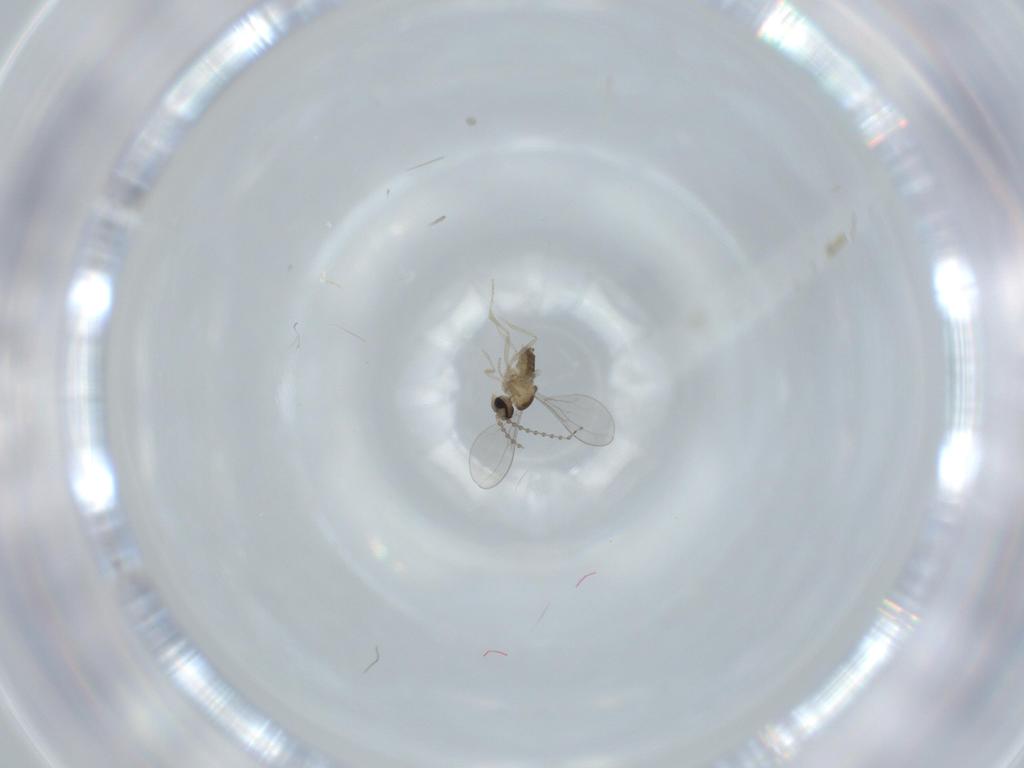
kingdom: Animalia
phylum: Arthropoda
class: Insecta
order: Diptera
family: Cecidomyiidae
